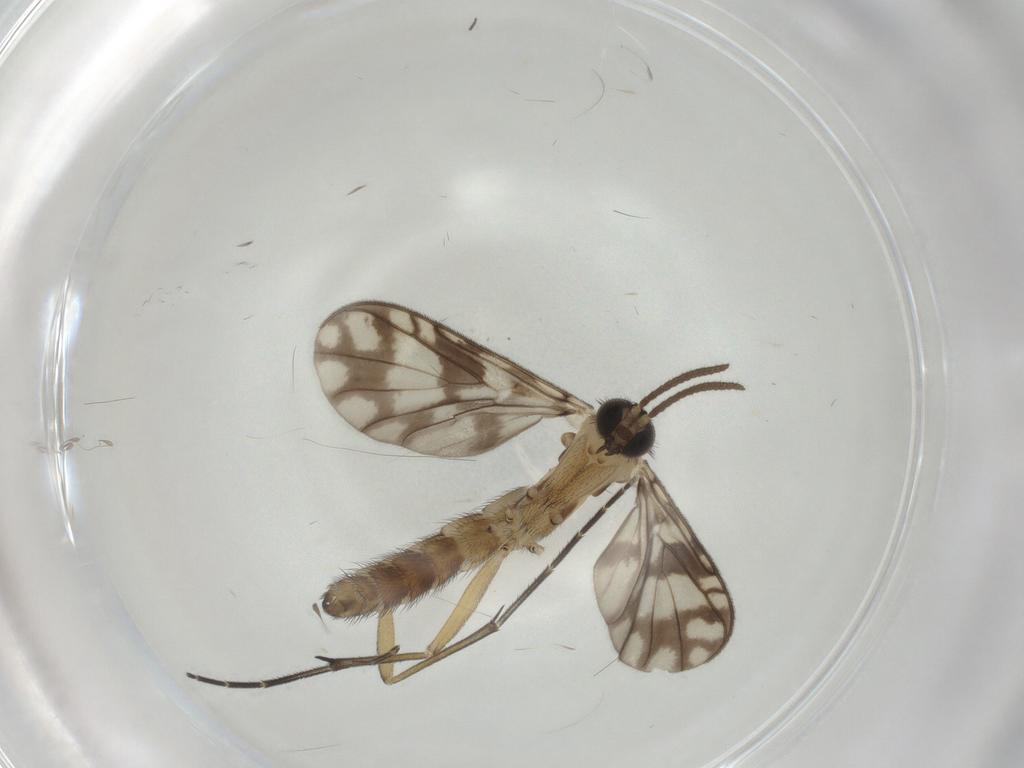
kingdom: Animalia
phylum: Arthropoda
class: Insecta
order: Diptera
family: Keroplatidae
